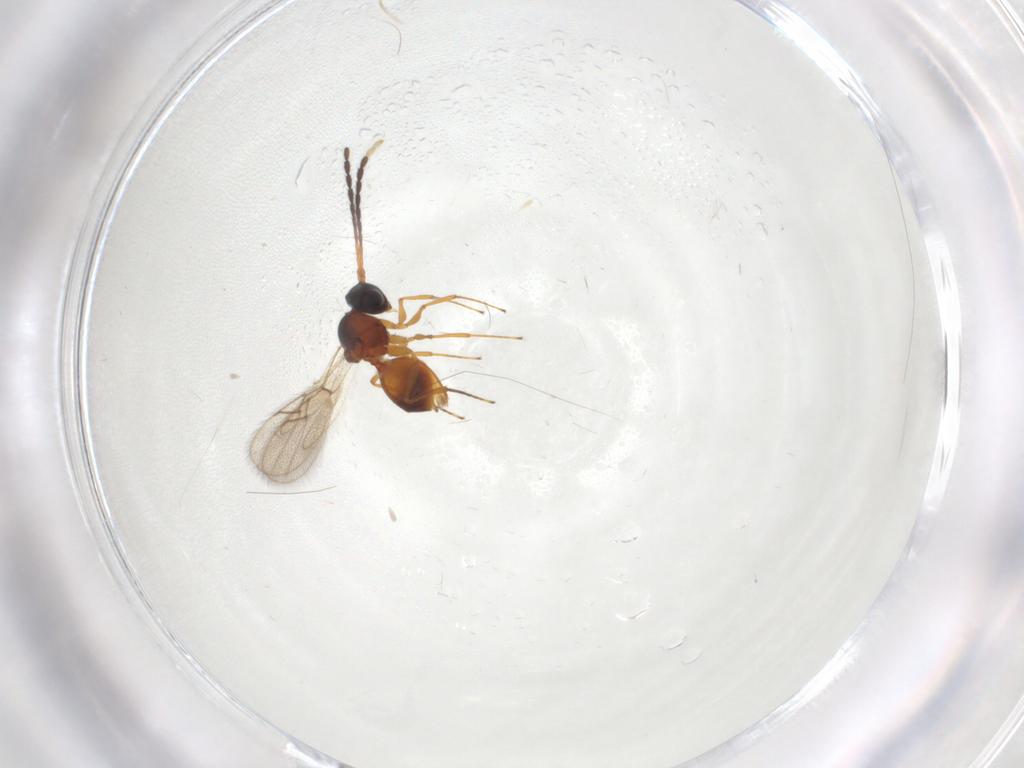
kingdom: Animalia
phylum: Arthropoda
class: Insecta
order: Hymenoptera
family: Figitidae
